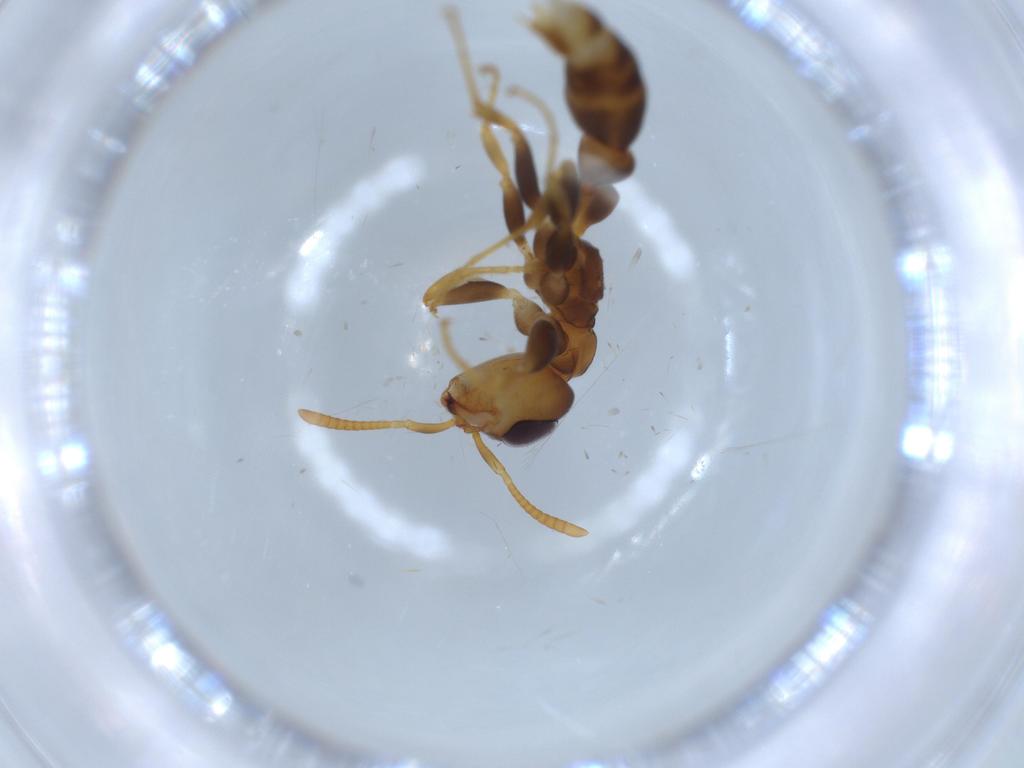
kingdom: Animalia
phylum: Arthropoda
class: Insecta
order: Hymenoptera
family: Formicidae
